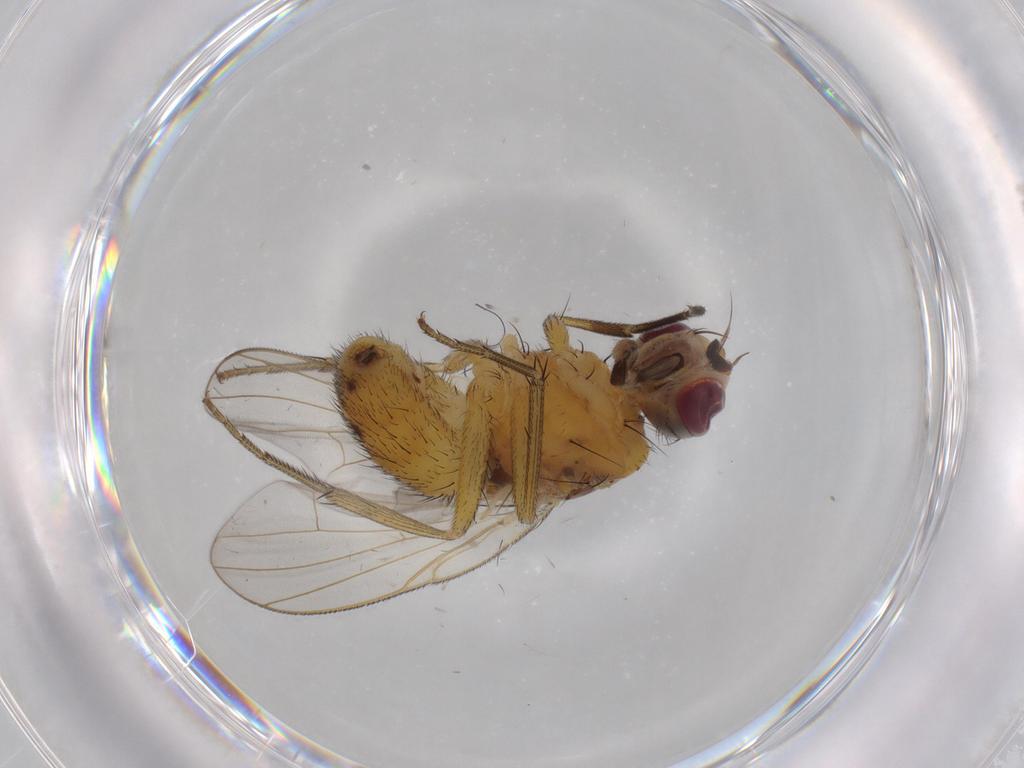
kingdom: Animalia
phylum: Arthropoda
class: Insecta
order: Diptera
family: Muscidae
